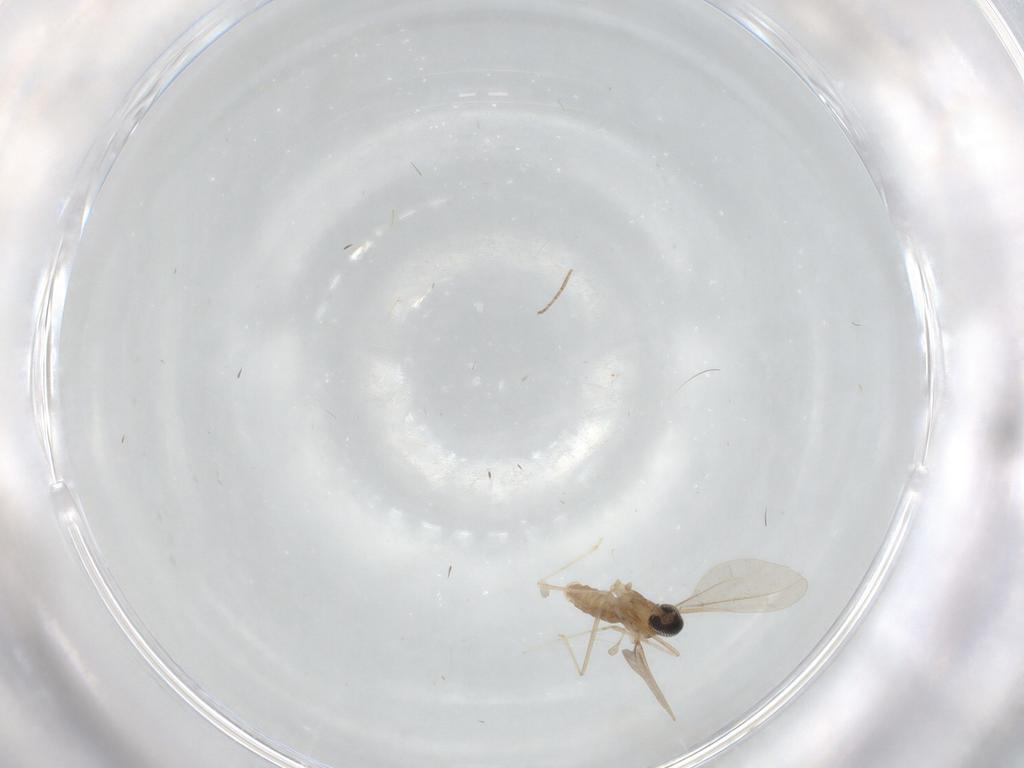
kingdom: Animalia
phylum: Arthropoda
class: Insecta
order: Diptera
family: Cecidomyiidae
